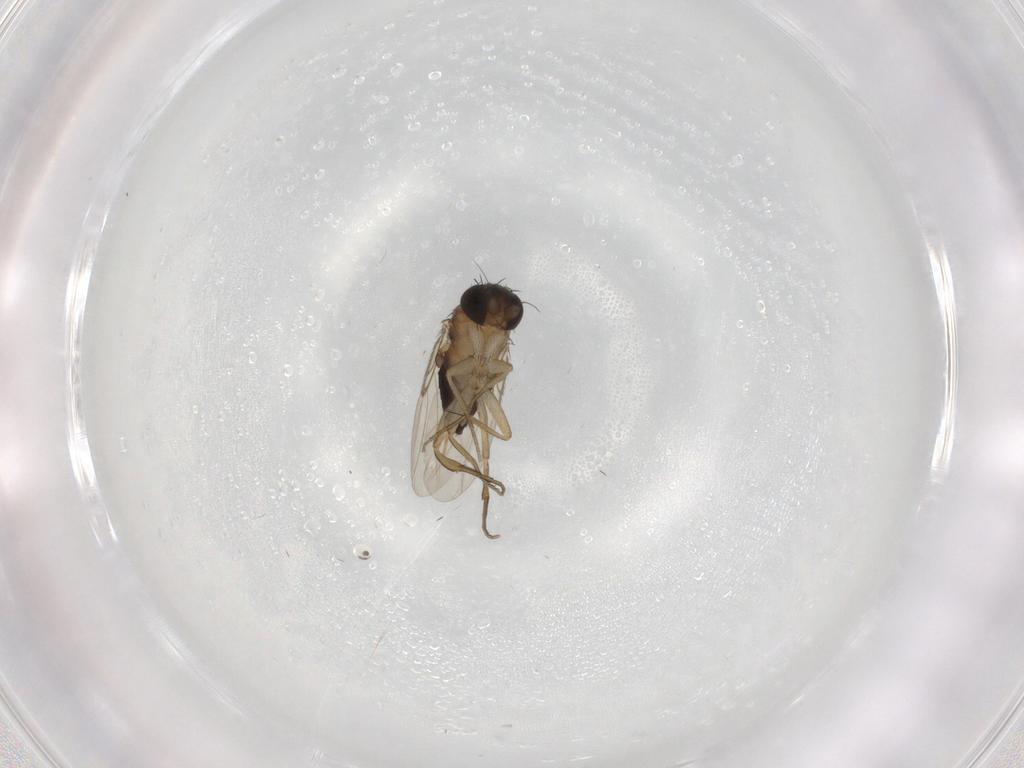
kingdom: Animalia
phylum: Arthropoda
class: Insecta
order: Diptera
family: Phoridae
